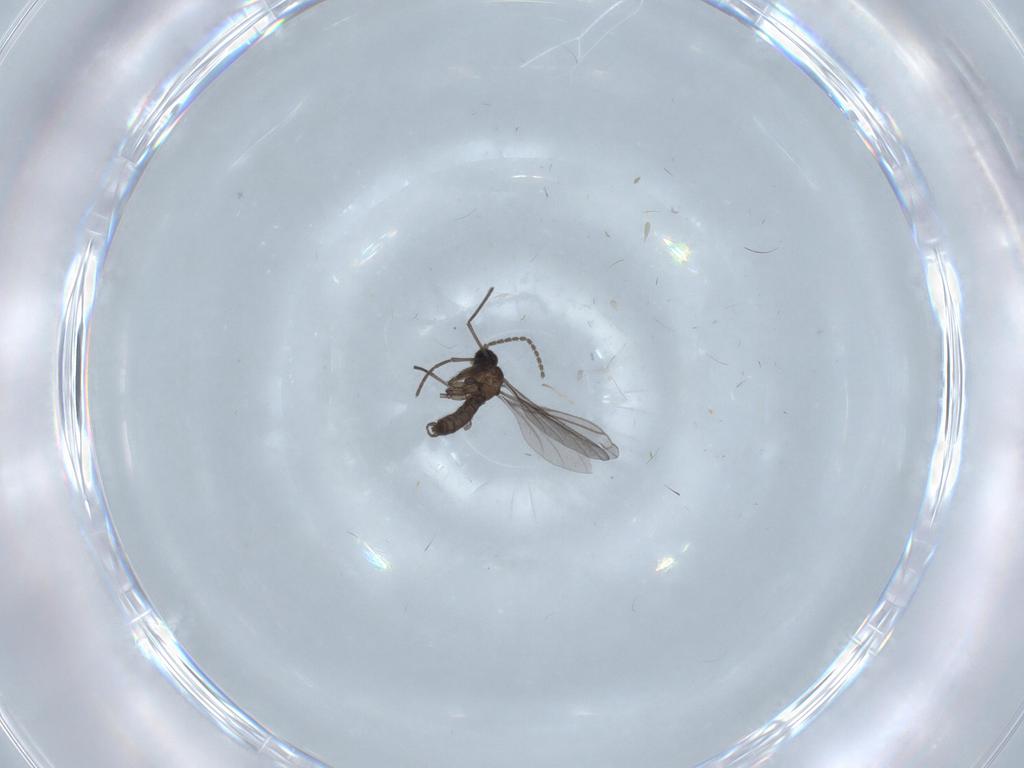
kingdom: Animalia
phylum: Arthropoda
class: Insecta
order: Diptera
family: Sciaridae
